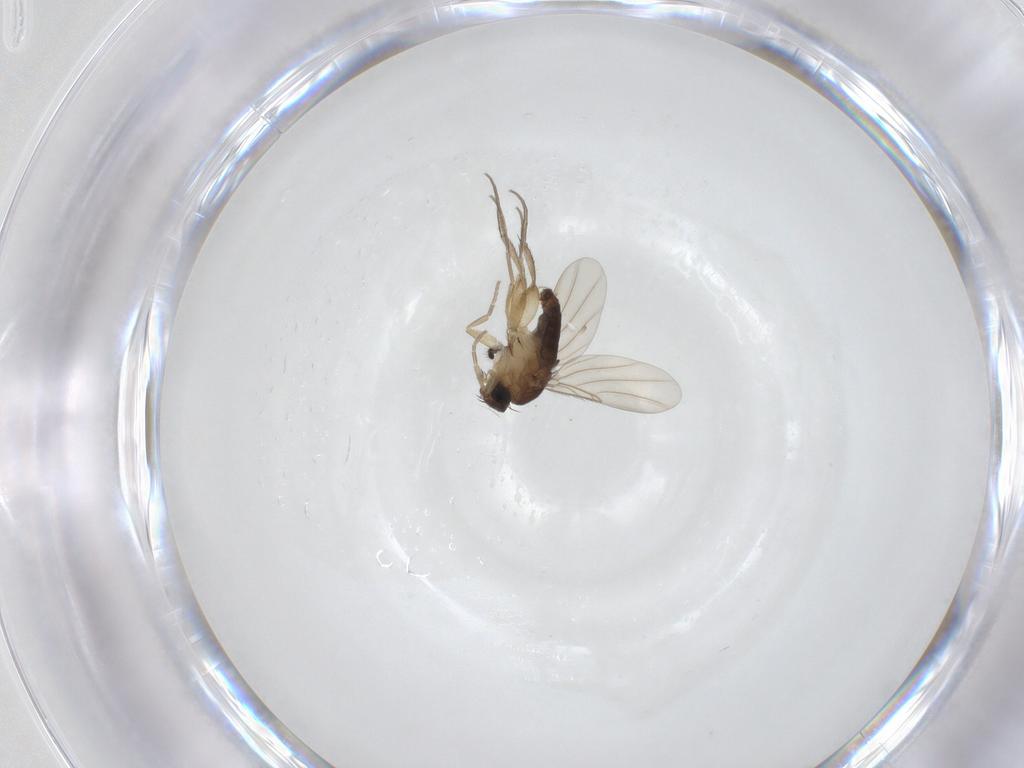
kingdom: Animalia
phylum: Arthropoda
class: Insecta
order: Diptera
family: Phoridae
